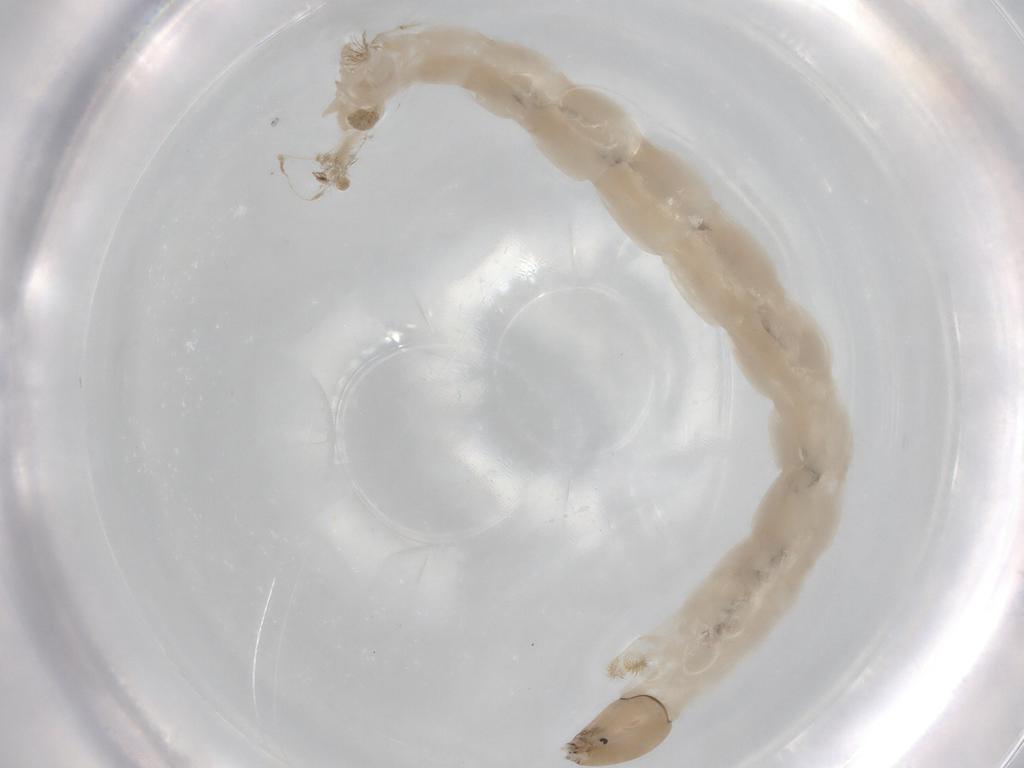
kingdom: Animalia
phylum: Arthropoda
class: Insecta
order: Diptera
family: Chironomidae
